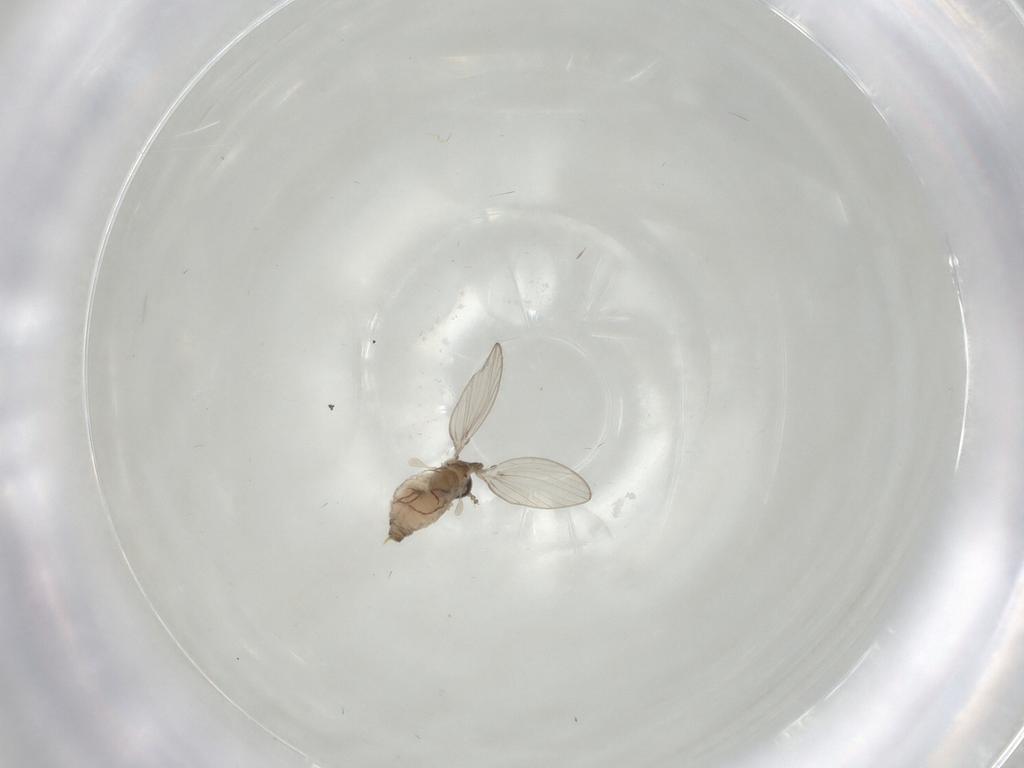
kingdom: Animalia
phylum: Arthropoda
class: Insecta
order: Diptera
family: Psychodidae
